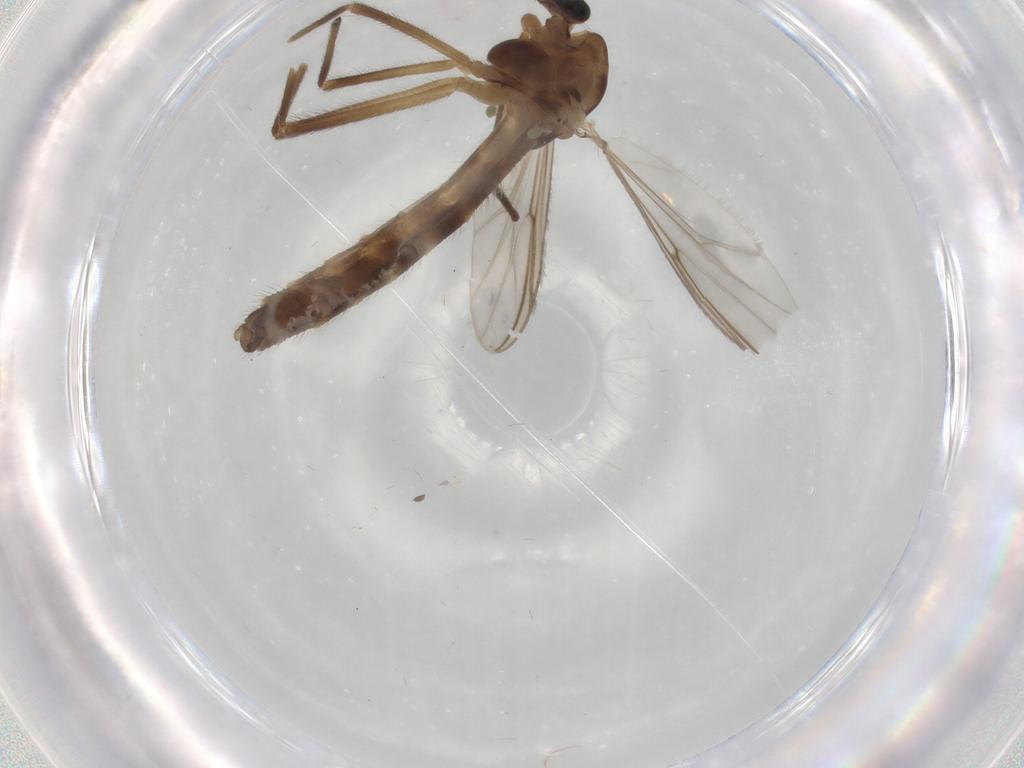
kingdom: Animalia
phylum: Arthropoda
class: Insecta
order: Diptera
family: Chironomidae
